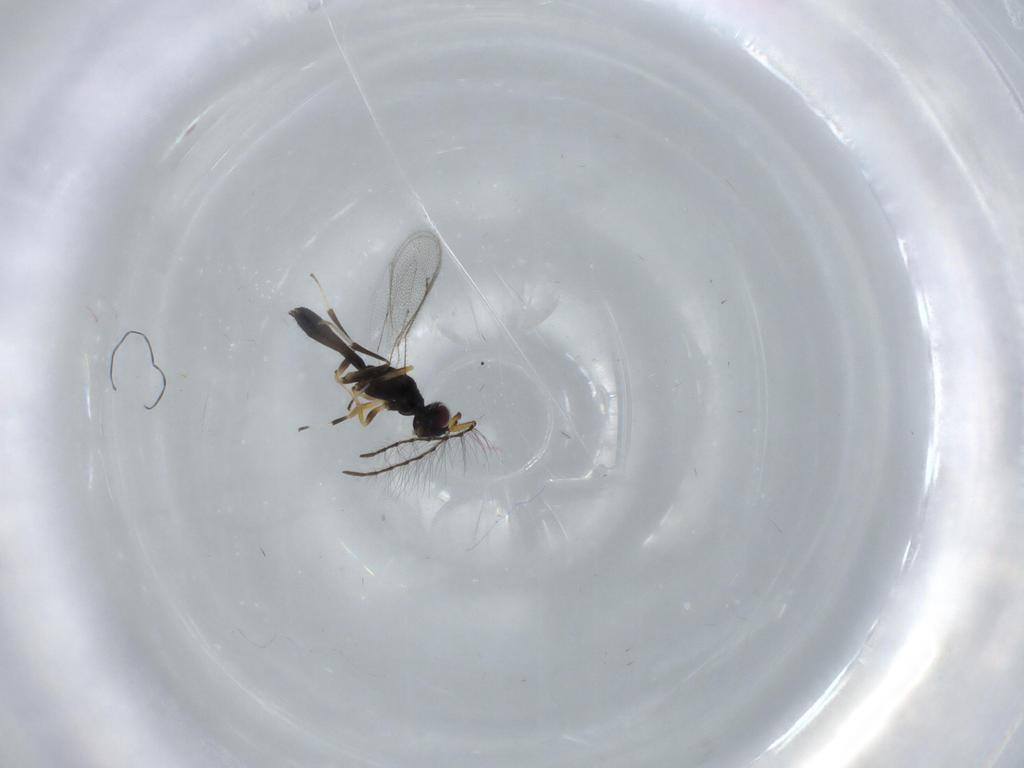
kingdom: Animalia
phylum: Arthropoda
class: Insecta
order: Hymenoptera
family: Eupelmidae
